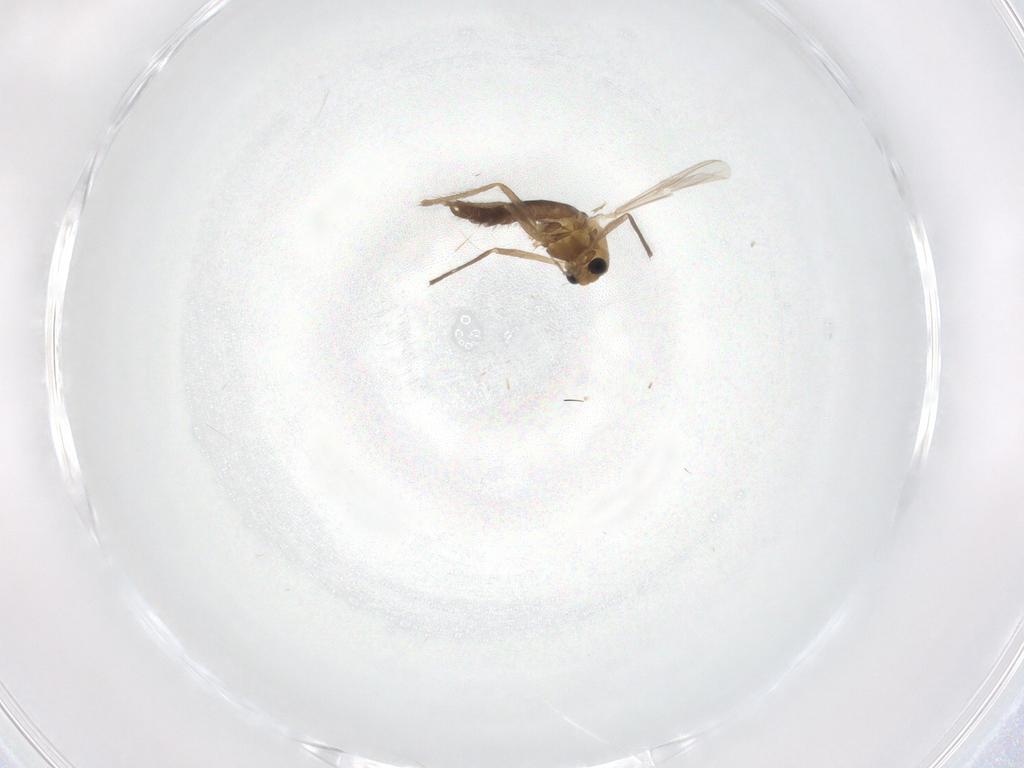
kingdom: Animalia
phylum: Arthropoda
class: Insecta
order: Diptera
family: Chironomidae
